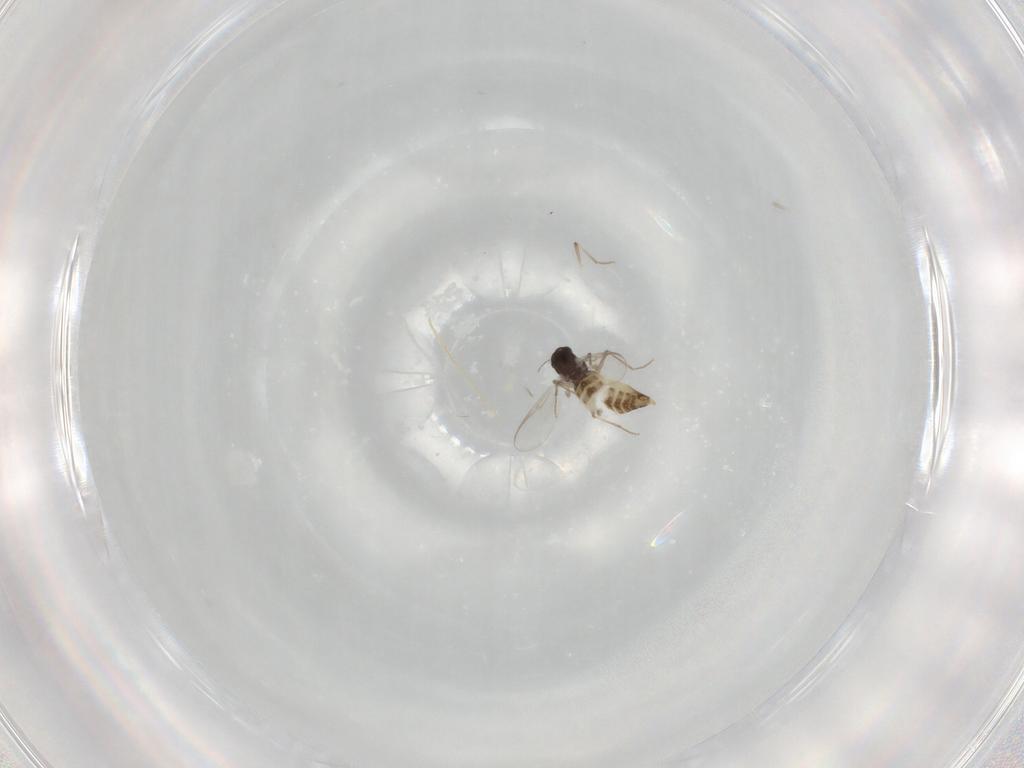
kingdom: Animalia
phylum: Arthropoda
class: Insecta
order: Diptera
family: Chironomidae
